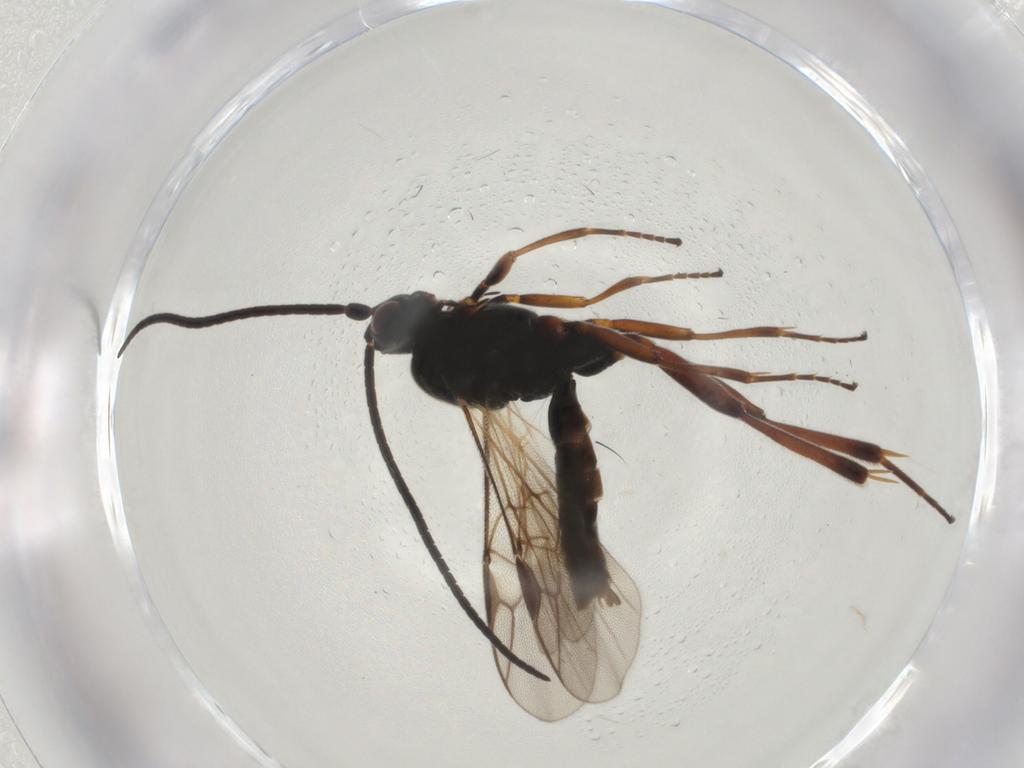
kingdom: Animalia
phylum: Arthropoda
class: Insecta
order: Hymenoptera
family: Braconidae
